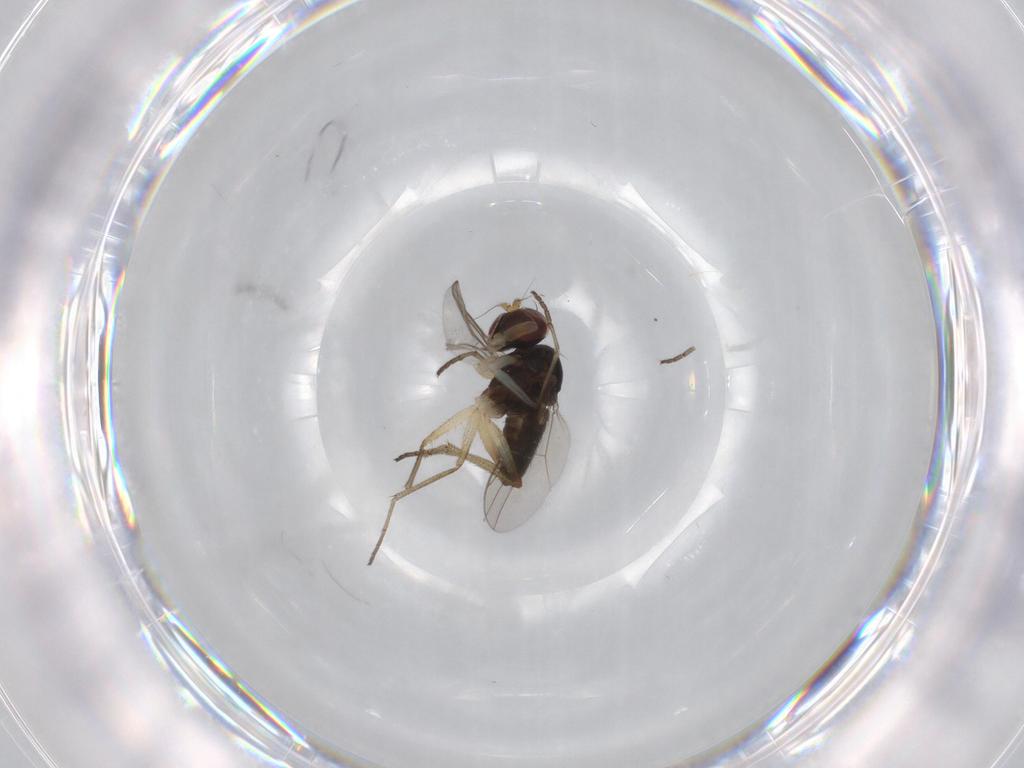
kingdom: Animalia
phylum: Arthropoda
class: Insecta
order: Diptera
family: Dolichopodidae
